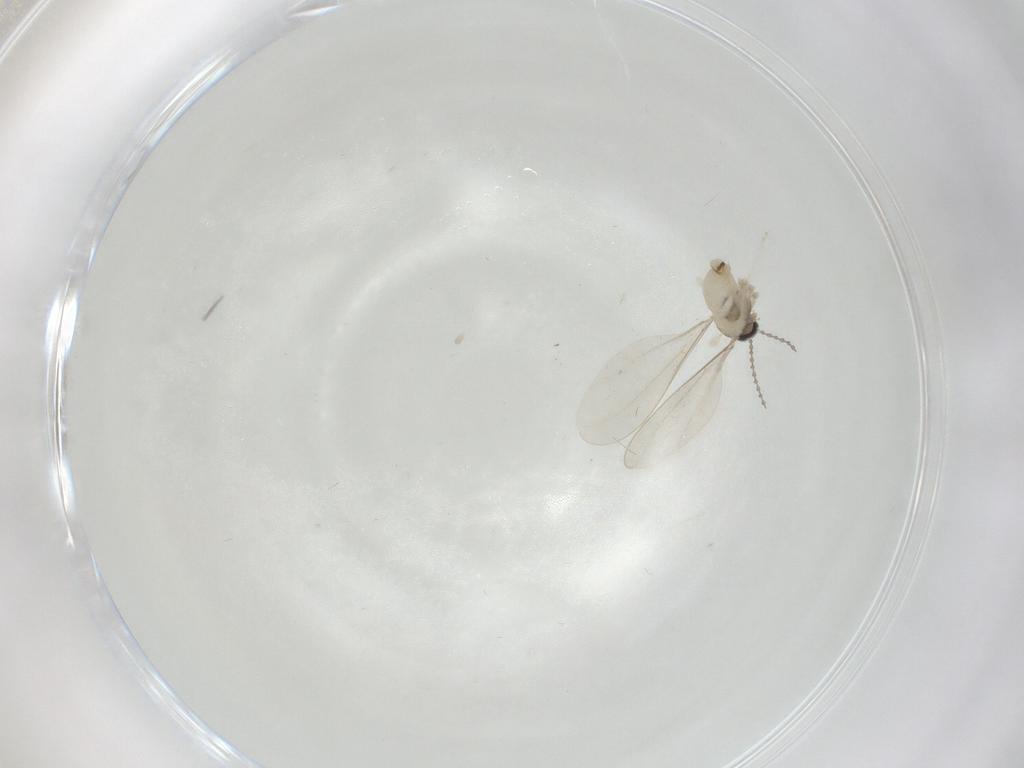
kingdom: Animalia
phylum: Arthropoda
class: Insecta
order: Diptera
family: Cecidomyiidae
